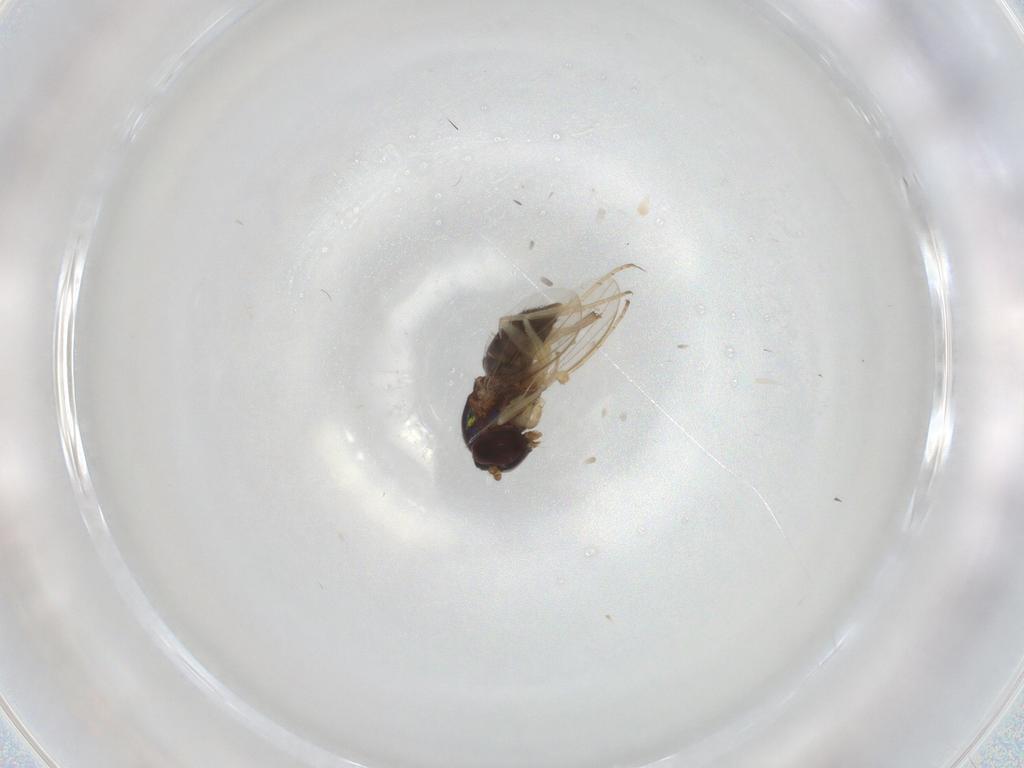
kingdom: Animalia
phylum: Arthropoda
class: Insecta
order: Diptera
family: Dolichopodidae
